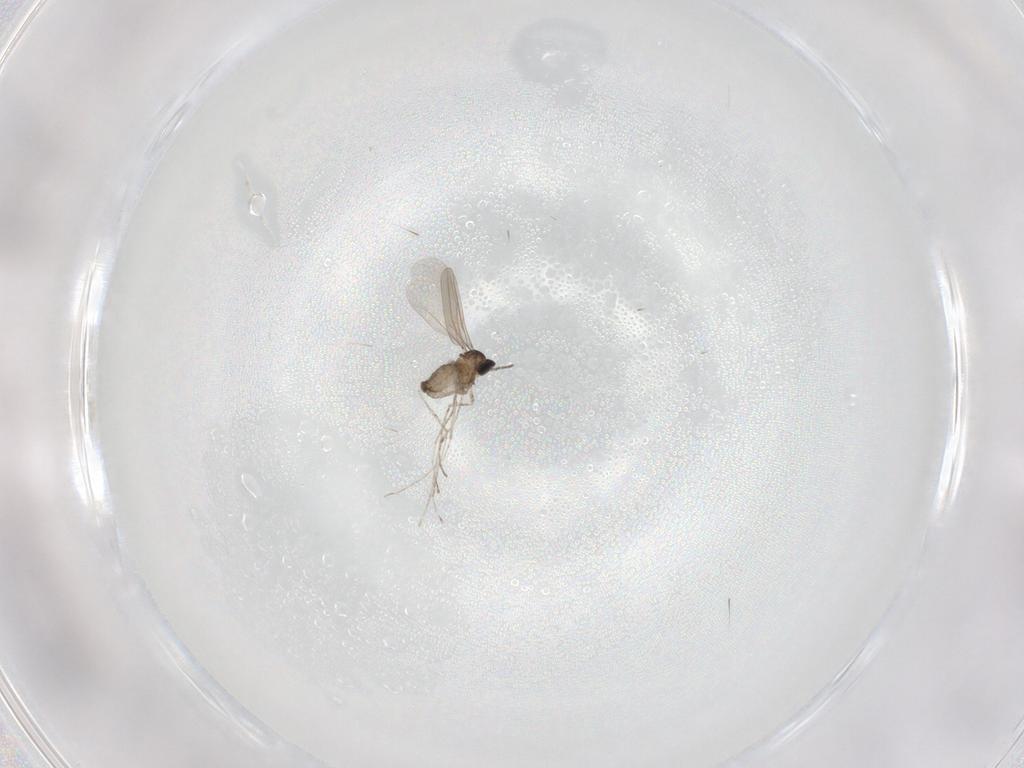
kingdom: Animalia
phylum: Arthropoda
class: Insecta
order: Diptera
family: Cecidomyiidae
